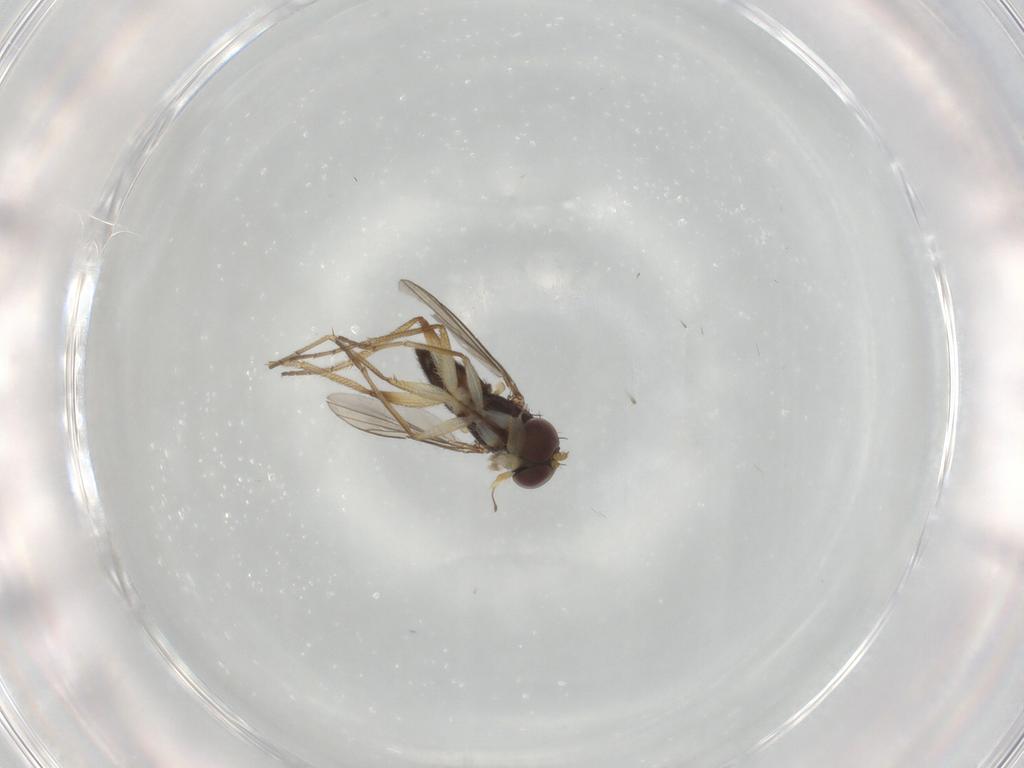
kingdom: Animalia
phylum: Arthropoda
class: Insecta
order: Diptera
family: Dolichopodidae
